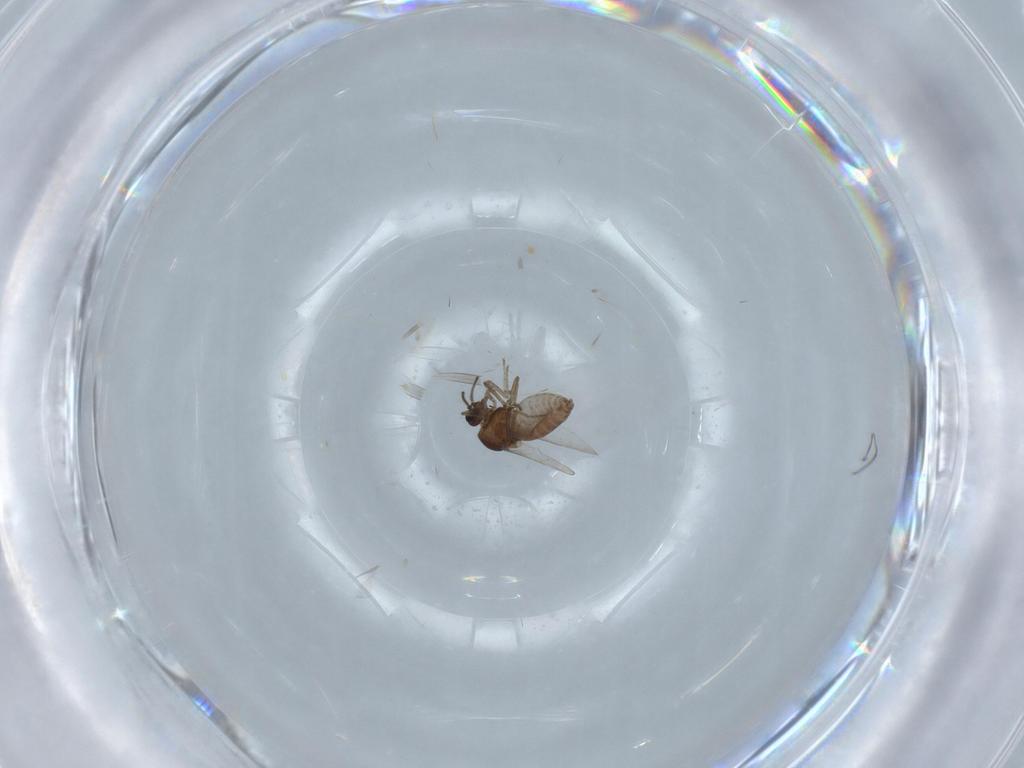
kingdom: Animalia
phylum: Arthropoda
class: Insecta
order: Diptera
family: Ceratopogonidae
